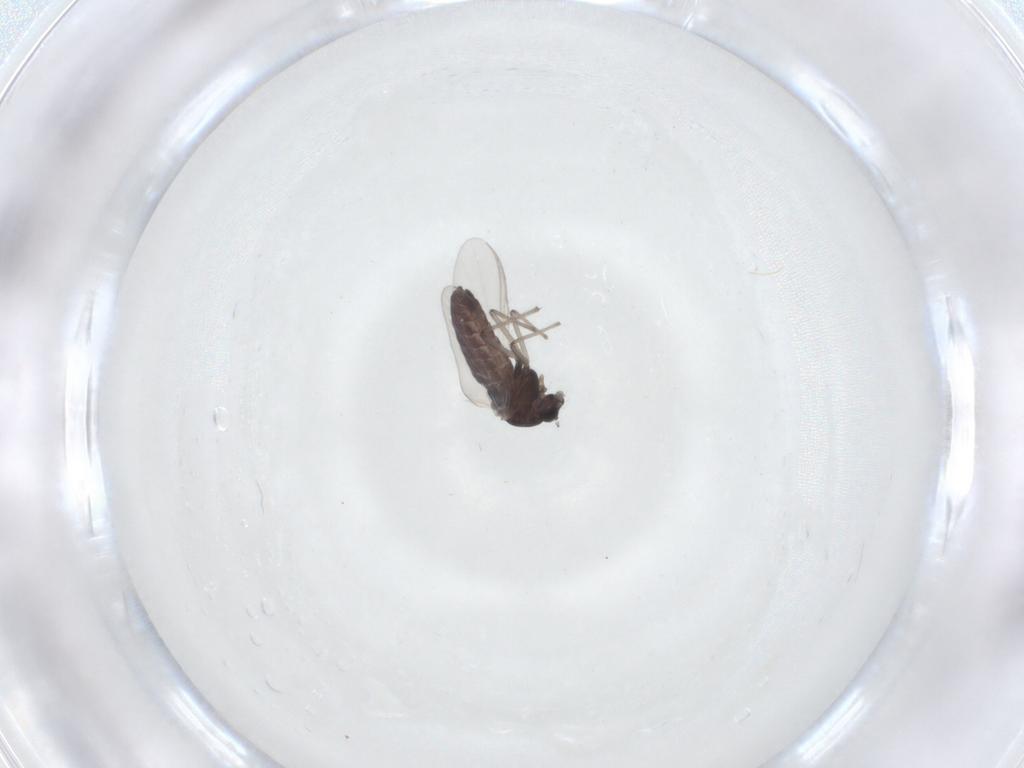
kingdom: Animalia
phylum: Arthropoda
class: Insecta
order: Diptera
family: Chironomidae
